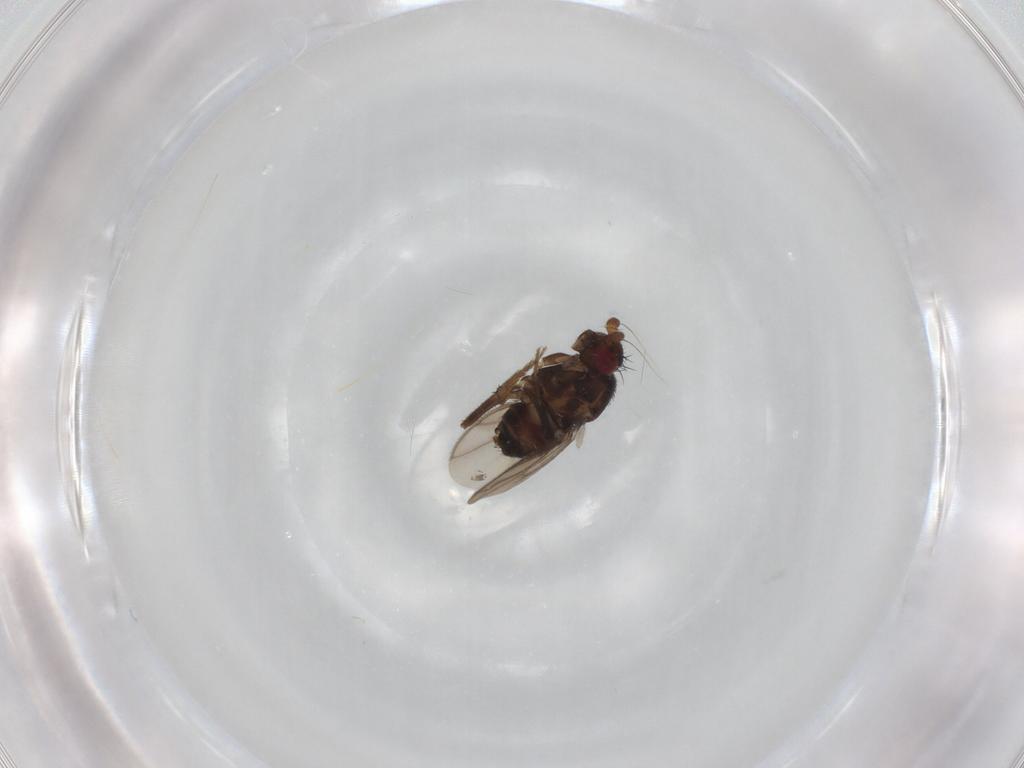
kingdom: Animalia
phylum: Arthropoda
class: Insecta
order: Diptera
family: Sphaeroceridae
